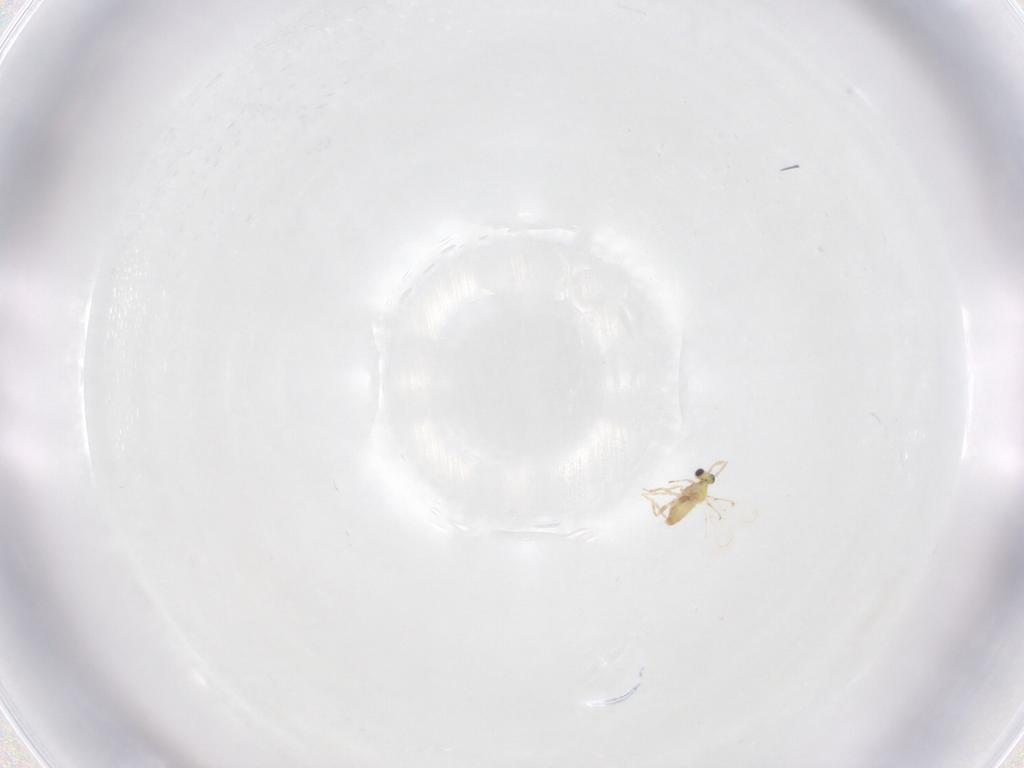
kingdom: Animalia
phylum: Arthropoda
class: Insecta
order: Hymenoptera
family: Trichogrammatidae
